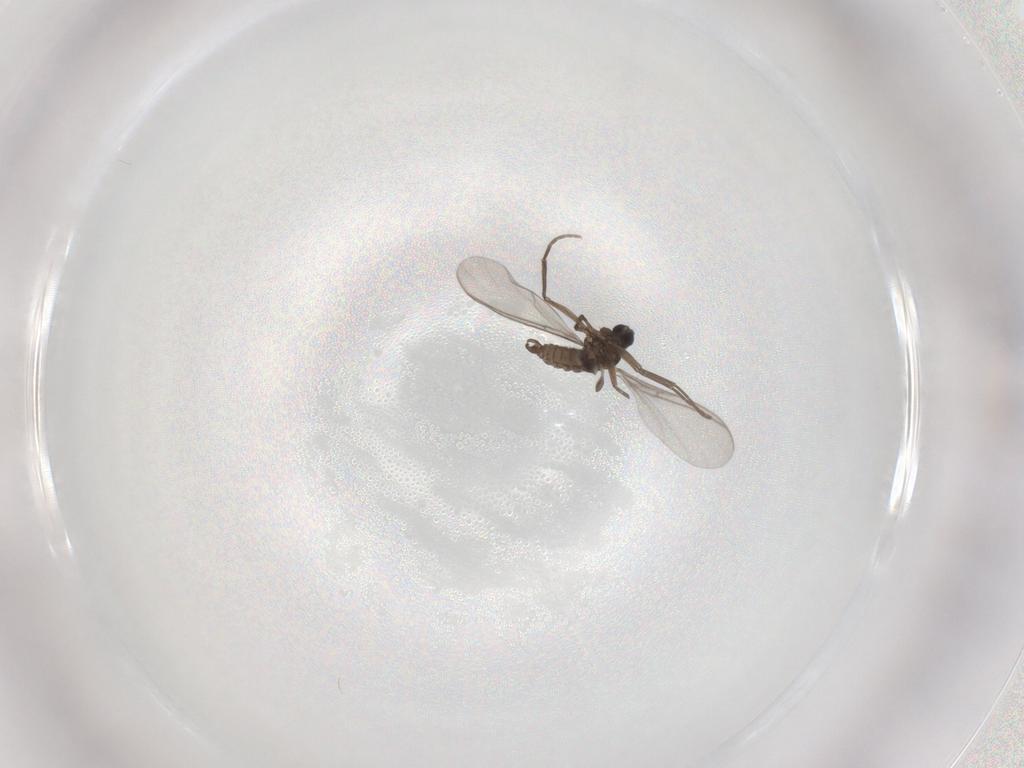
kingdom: Animalia
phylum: Arthropoda
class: Insecta
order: Diptera
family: Sciaridae
